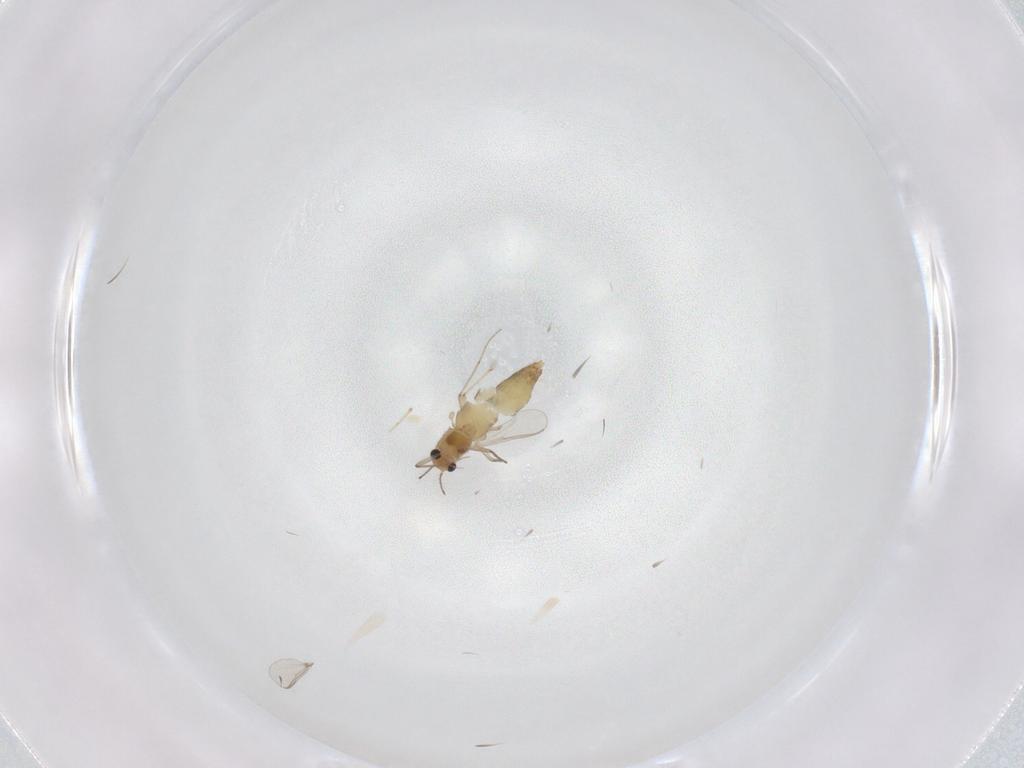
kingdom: Animalia
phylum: Arthropoda
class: Insecta
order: Diptera
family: Chironomidae
